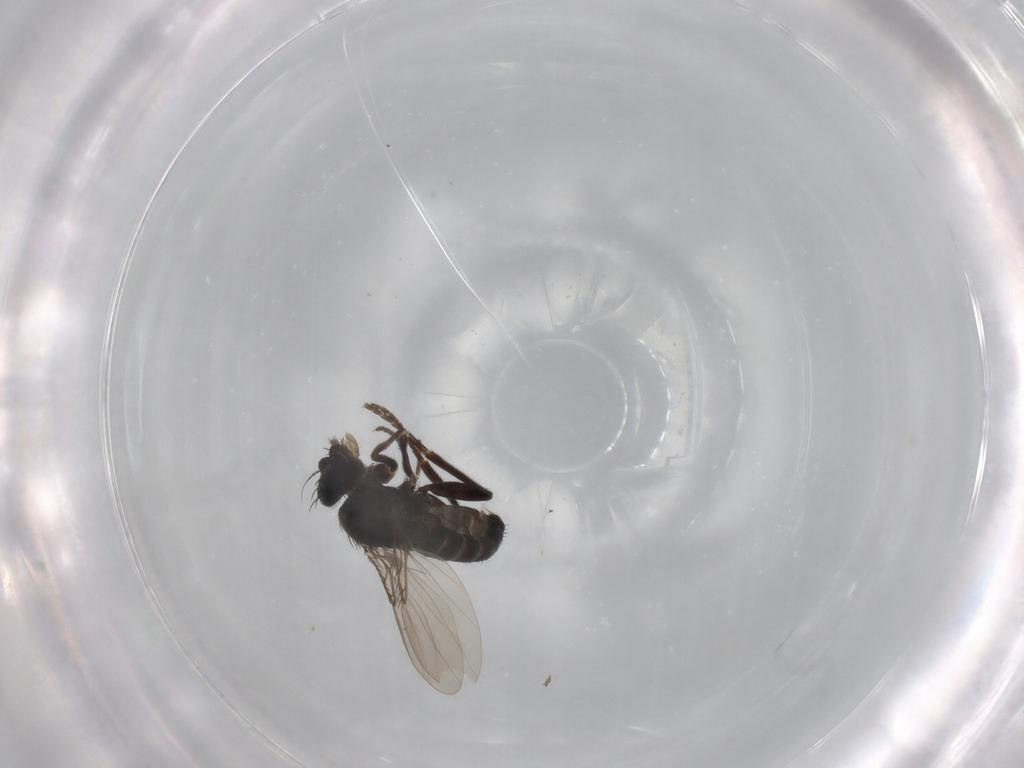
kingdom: Animalia
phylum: Arthropoda
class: Insecta
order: Diptera
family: Phoridae
